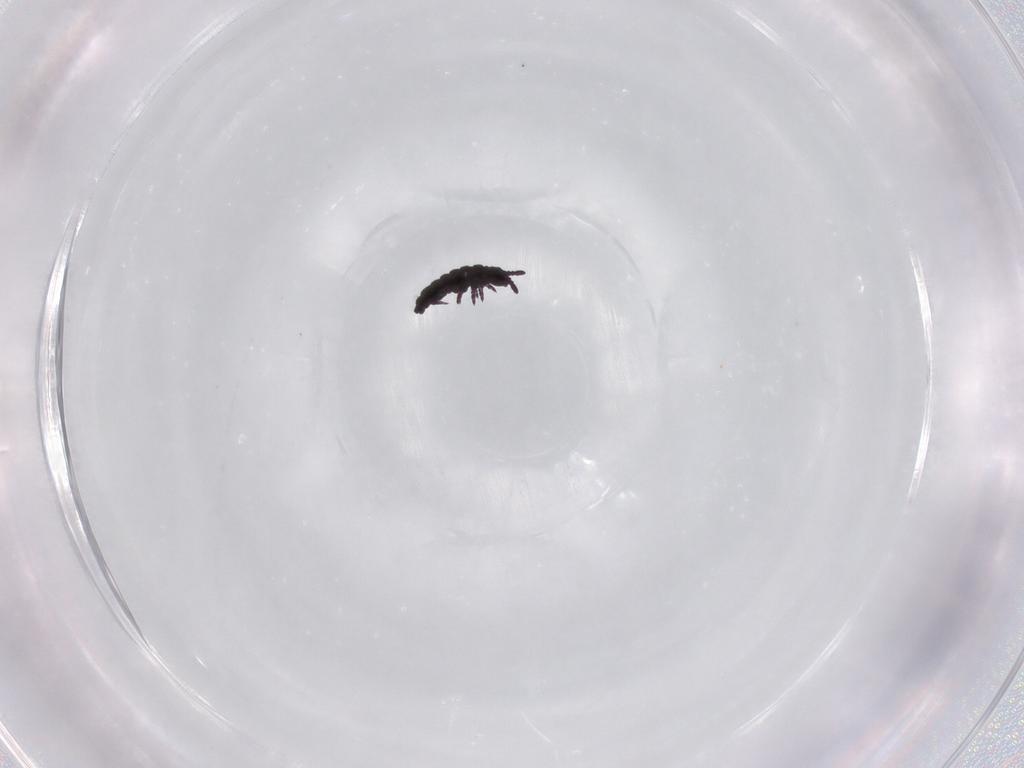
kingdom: Animalia
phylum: Arthropoda
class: Collembola
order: Poduromorpha
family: Hypogastruridae
